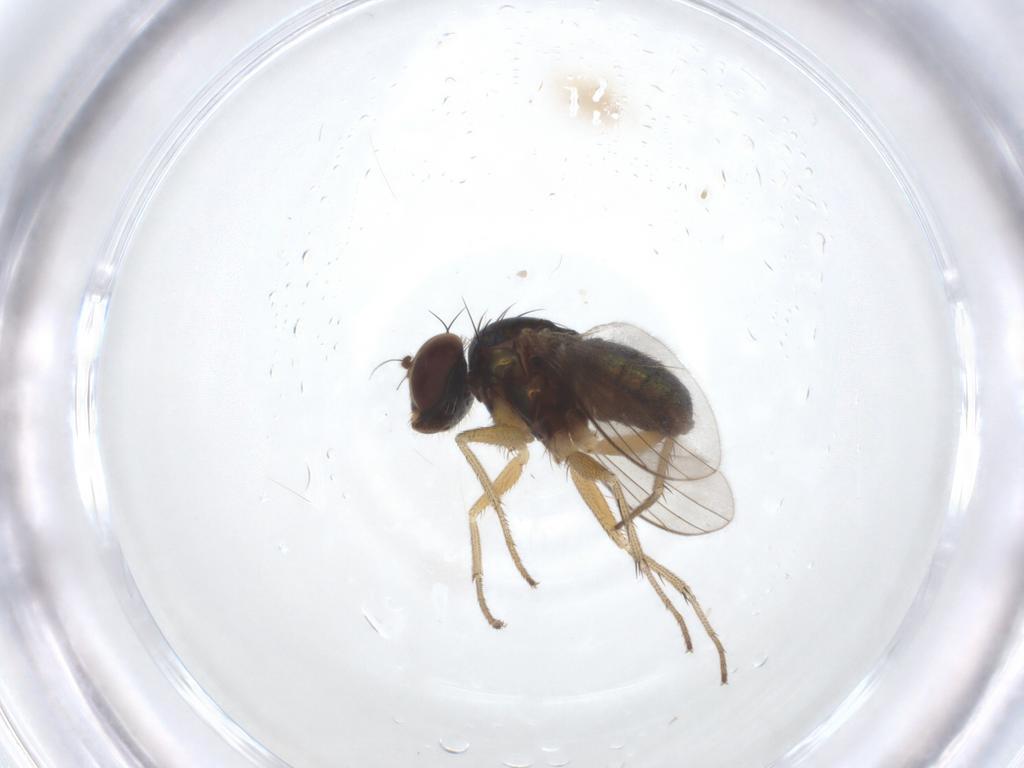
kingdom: Animalia
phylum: Arthropoda
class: Insecta
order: Diptera
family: Dolichopodidae
